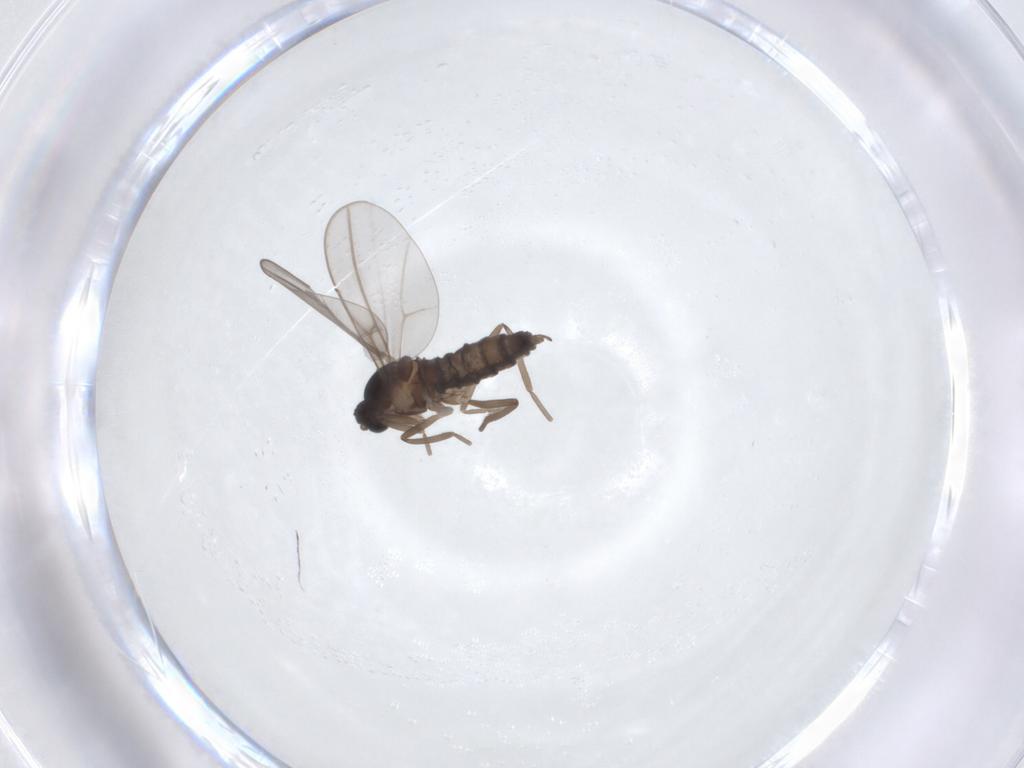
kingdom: Animalia
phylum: Arthropoda
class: Insecta
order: Diptera
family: Cecidomyiidae
